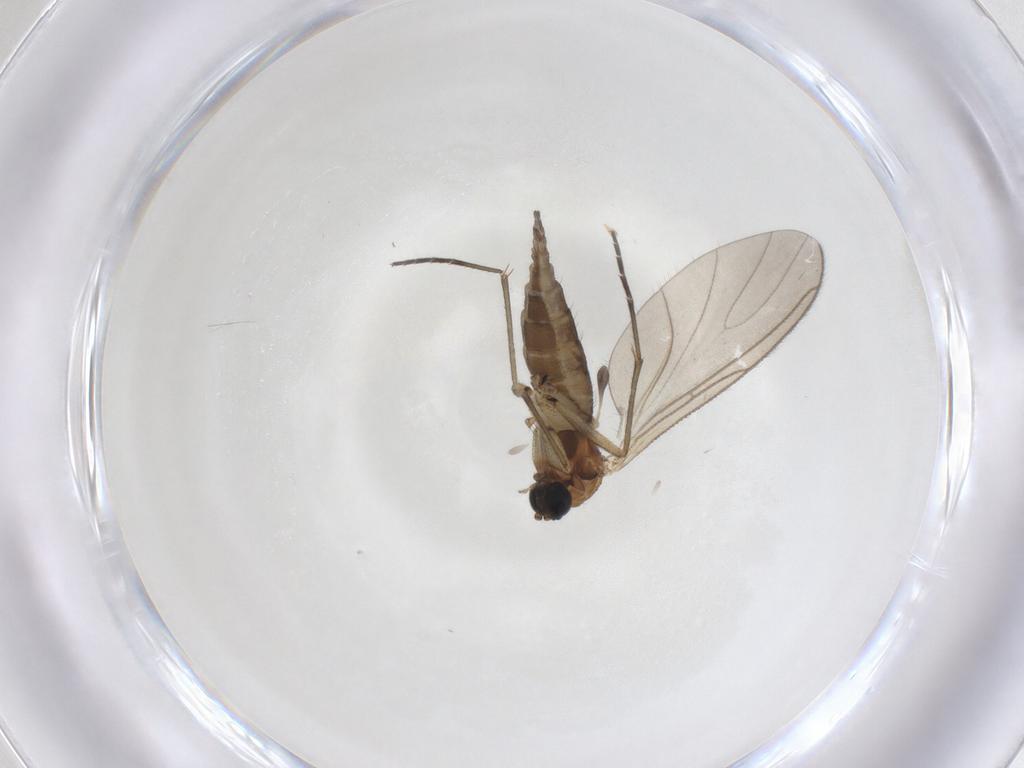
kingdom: Animalia
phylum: Arthropoda
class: Insecta
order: Diptera
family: Sciaridae
